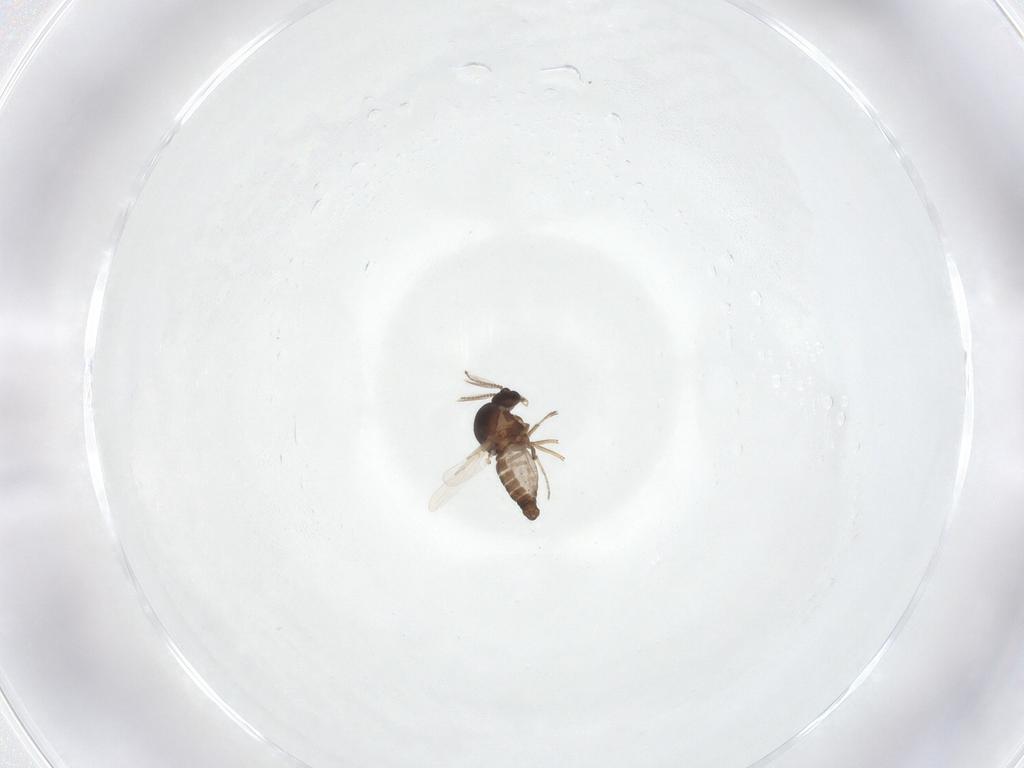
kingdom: Animalia
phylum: Arthropoda
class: Insecta
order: Diptera
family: Ceratopogonidae
